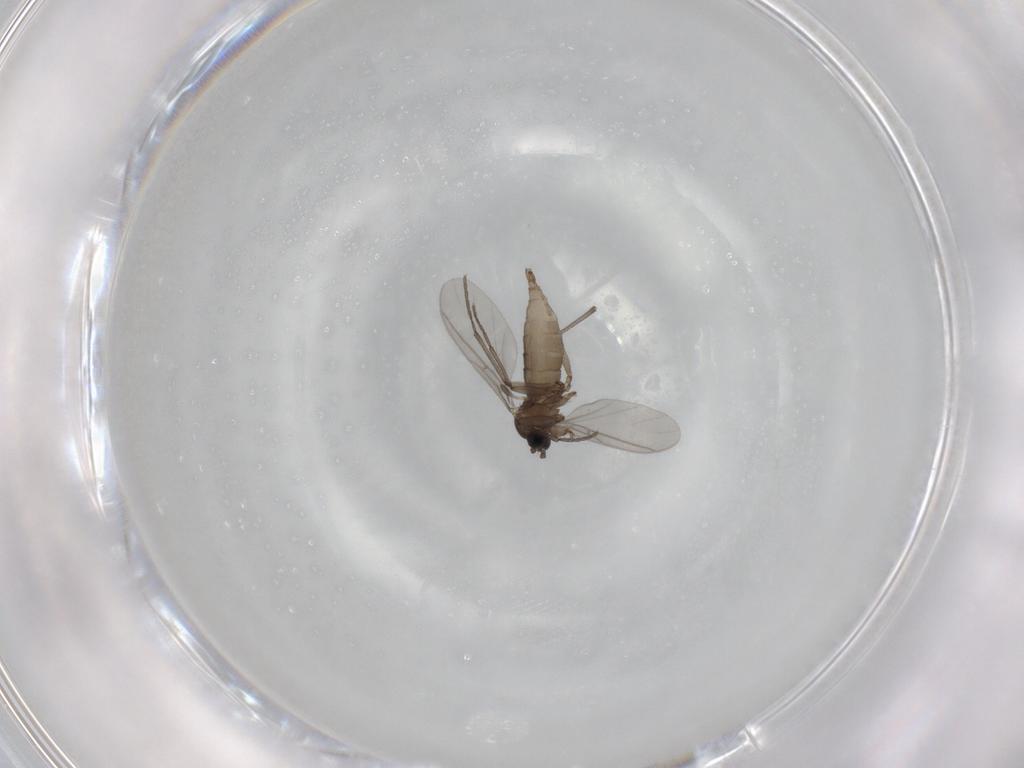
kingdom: Animalia
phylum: Arthropoda
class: Insecta
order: Diptera
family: Sciaridae
